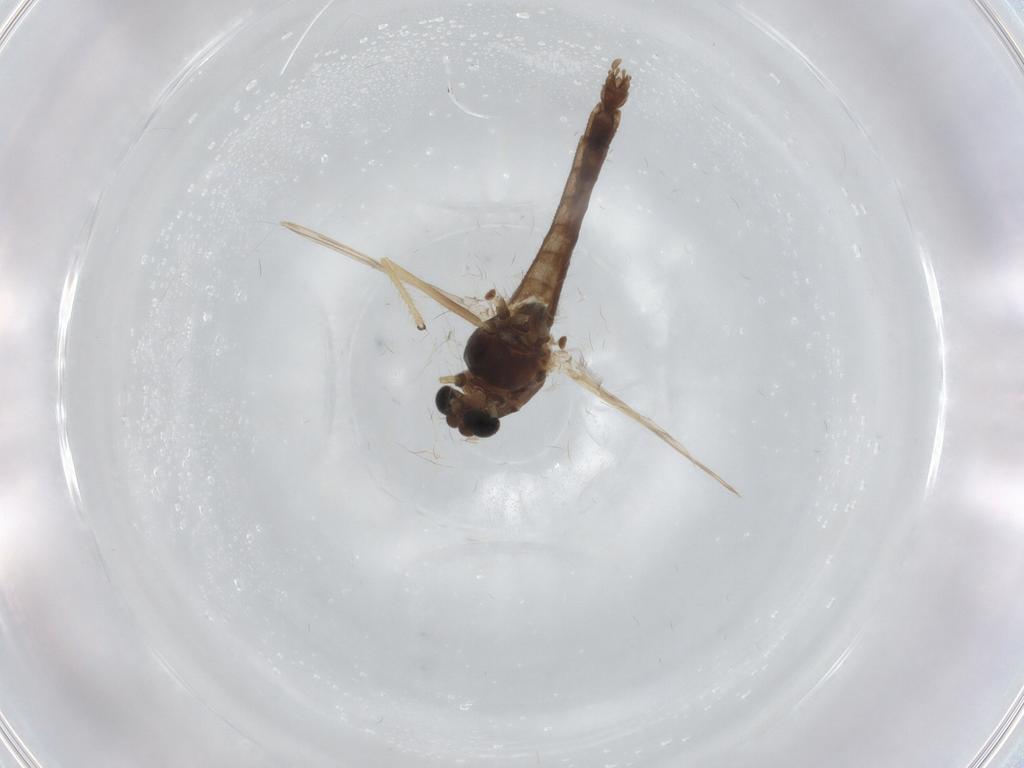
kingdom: Animalia
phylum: Arthropoda
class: Insecta
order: Diptera
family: Chironomidae
